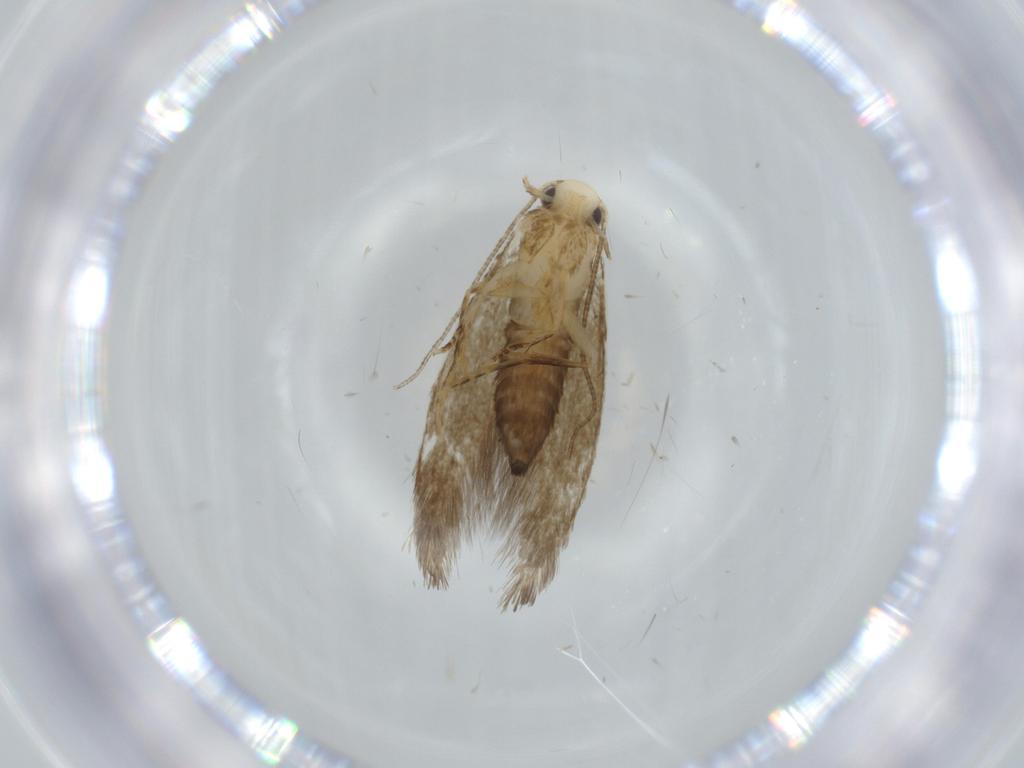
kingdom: Animalia
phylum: Arthropoda
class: Insecta
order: Lepidoptera
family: Tineidae
